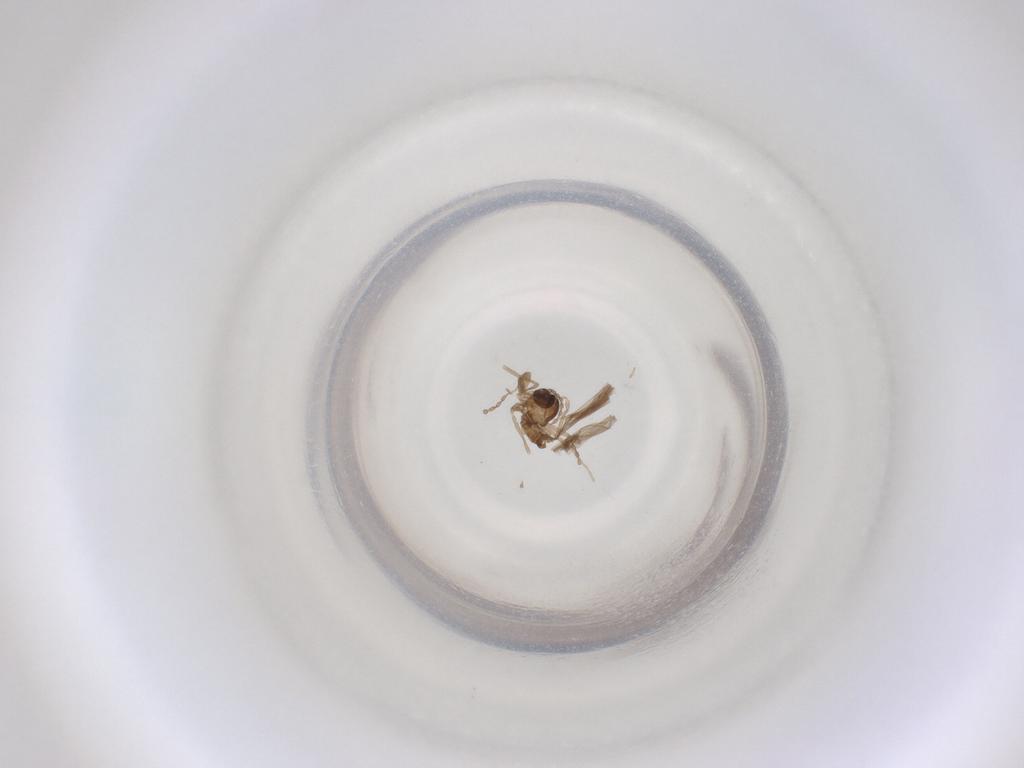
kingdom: Animalia
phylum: Arthropoda
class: Insecta
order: Diptera
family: Cecidomyiidae
